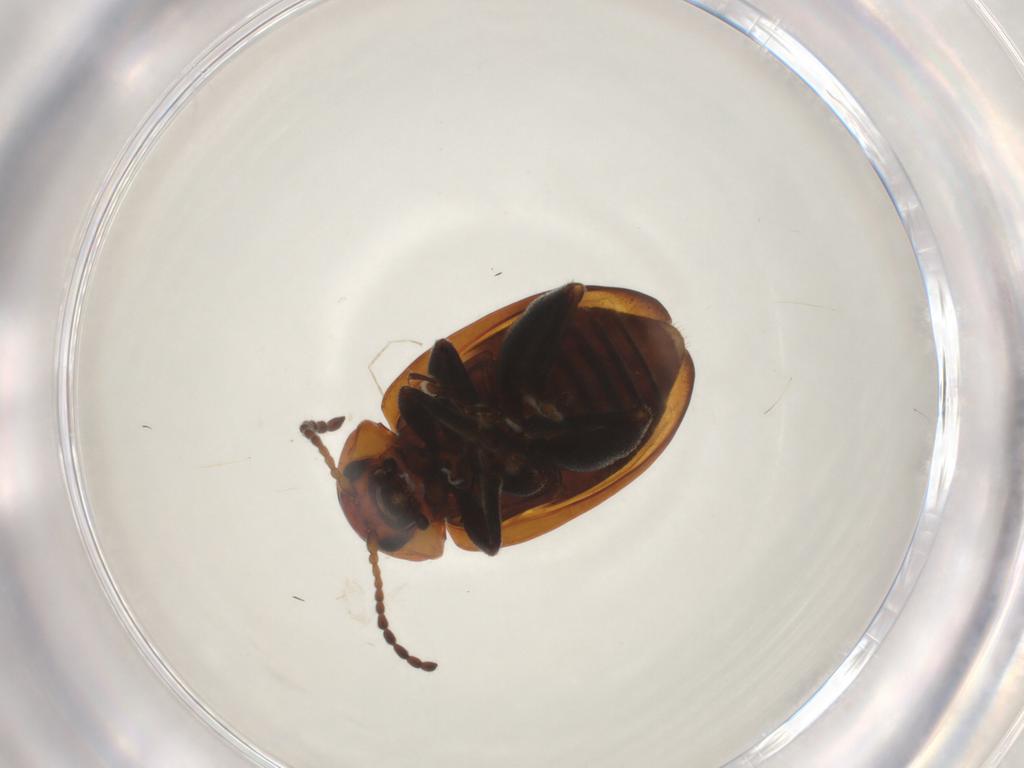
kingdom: Animalia
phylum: Arthropoda
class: Insecta
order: Coleoptera
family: Chrysomelidae
